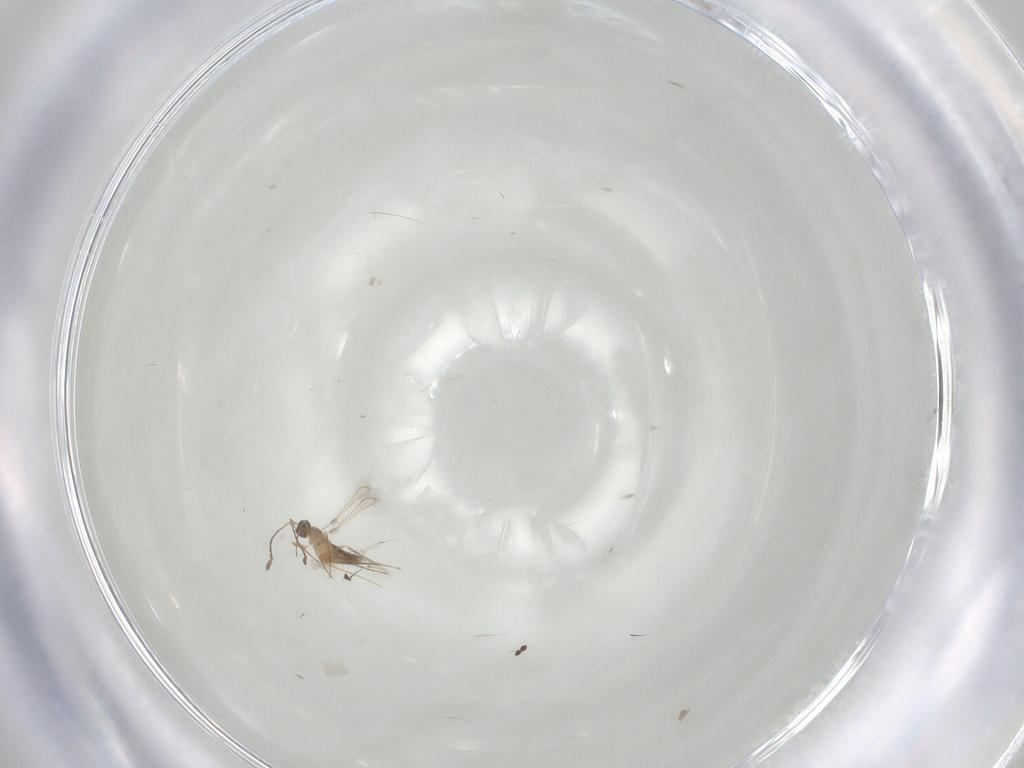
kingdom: Animalia
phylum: Arthropoda
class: Insecta
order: Hymenoptera
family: Mymaridae
